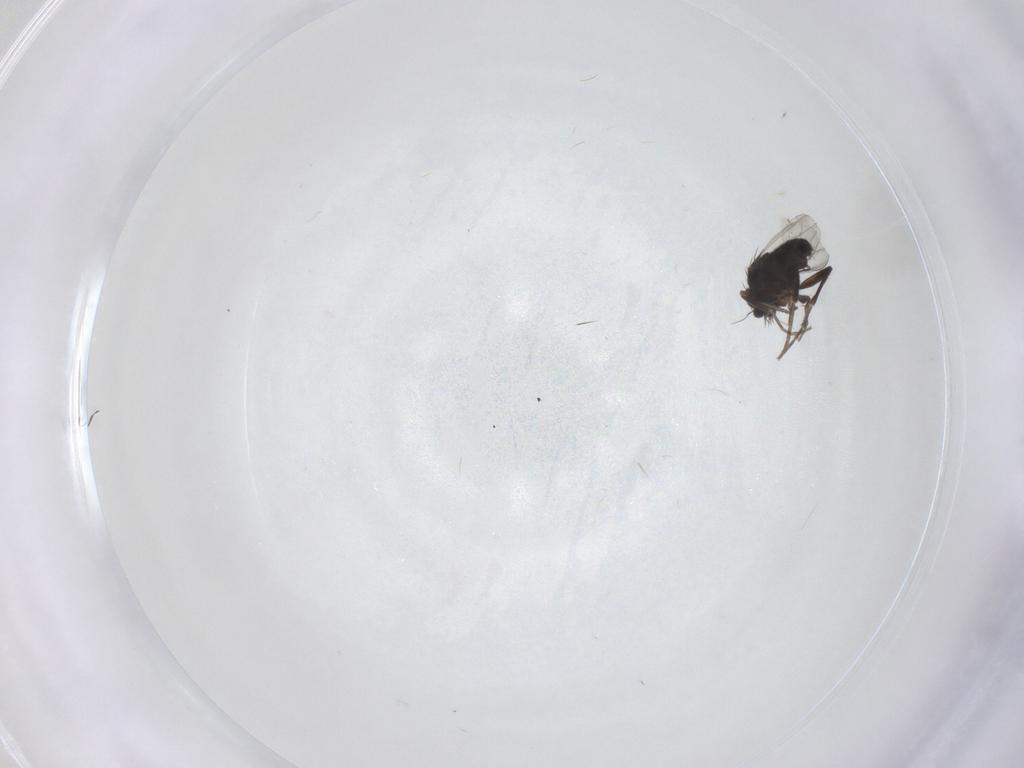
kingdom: Animalia
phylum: Arthropoda
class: Insecta
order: Diptera
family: Phoridae
